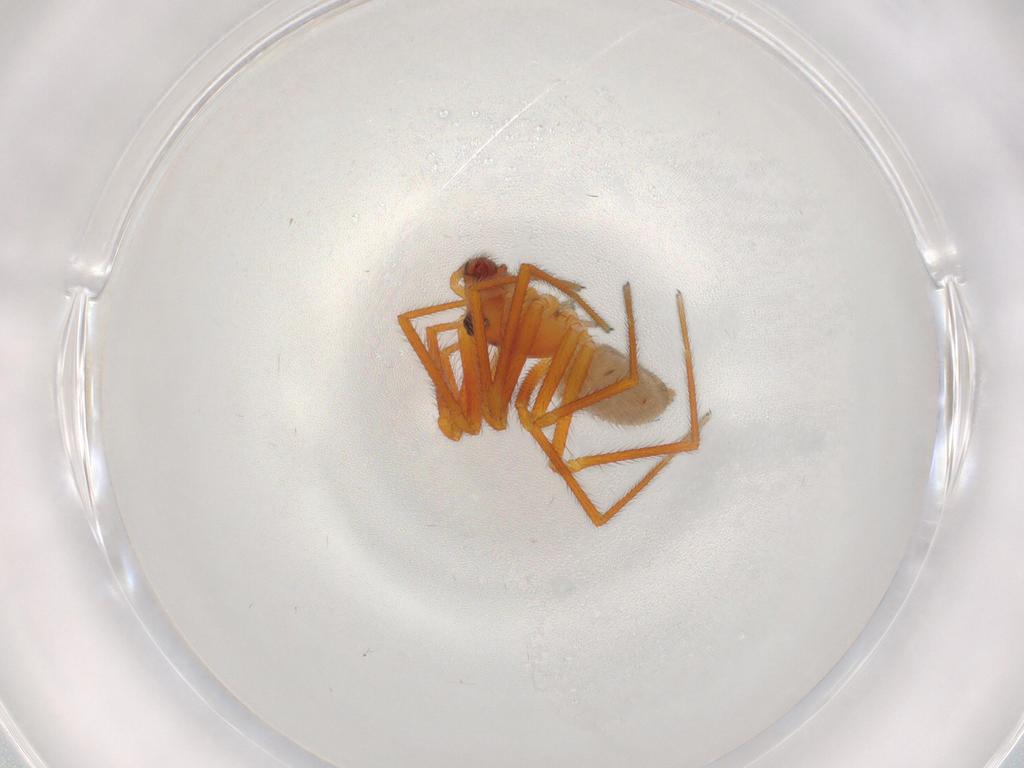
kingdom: Animalia
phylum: Arthropoda
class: Arachnida
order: Araneae
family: Linyphiidae
